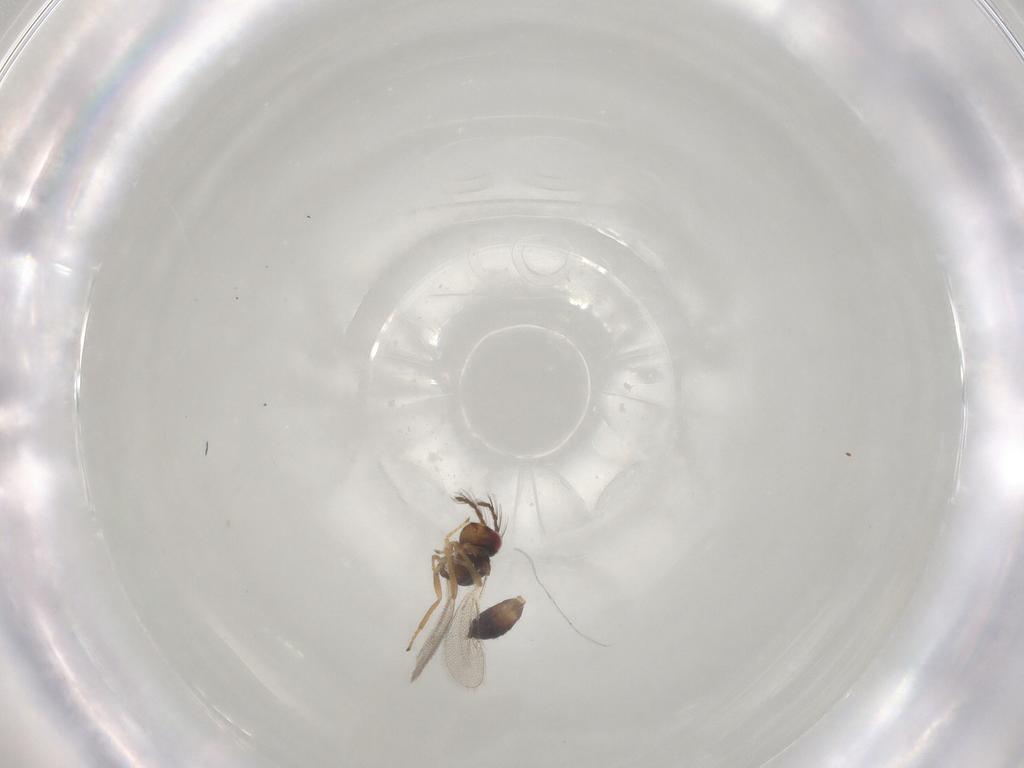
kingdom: Animalia
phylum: Arthropoda
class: Insecta
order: Hymenoptera
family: Eulophidae
